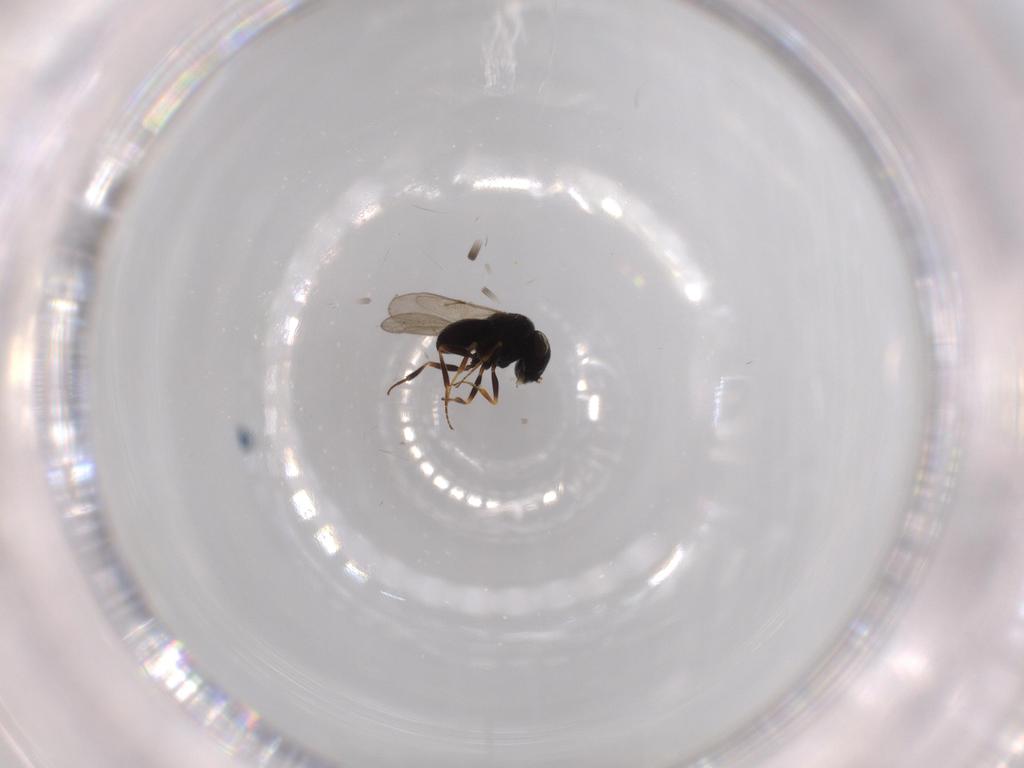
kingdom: Animalia
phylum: Arthropoda
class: Insecta
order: Hymenoptera
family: Scelionidae
